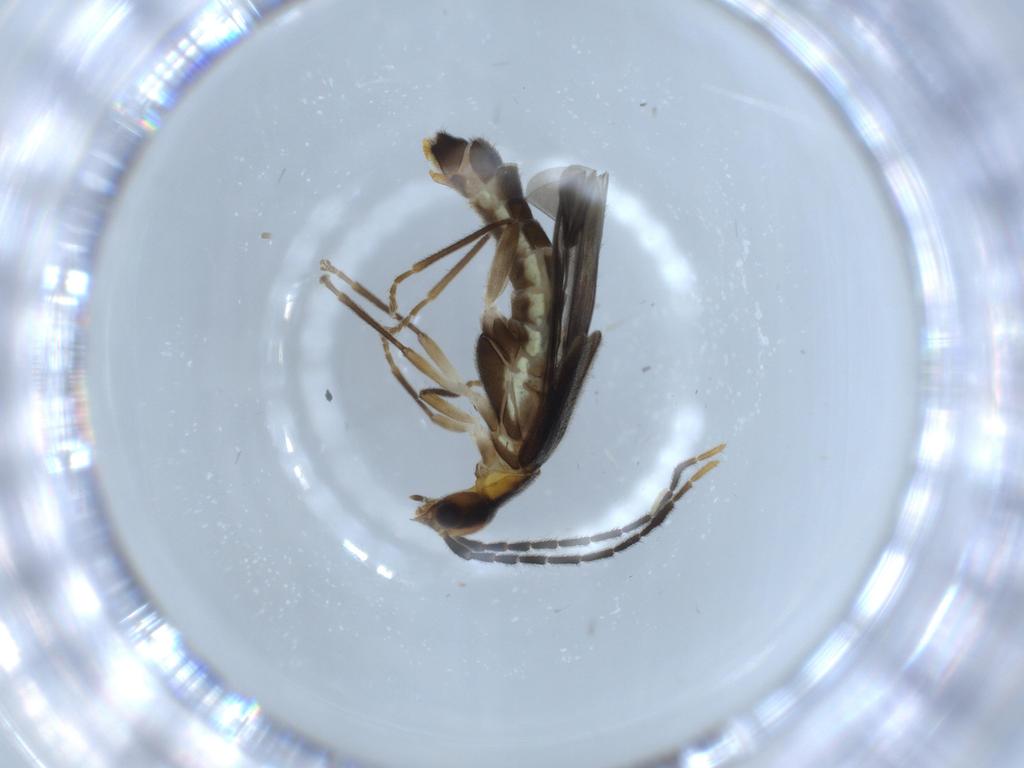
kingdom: Animalia
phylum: Arthropoda
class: Insecta
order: Coleoptera
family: Cantharidae
